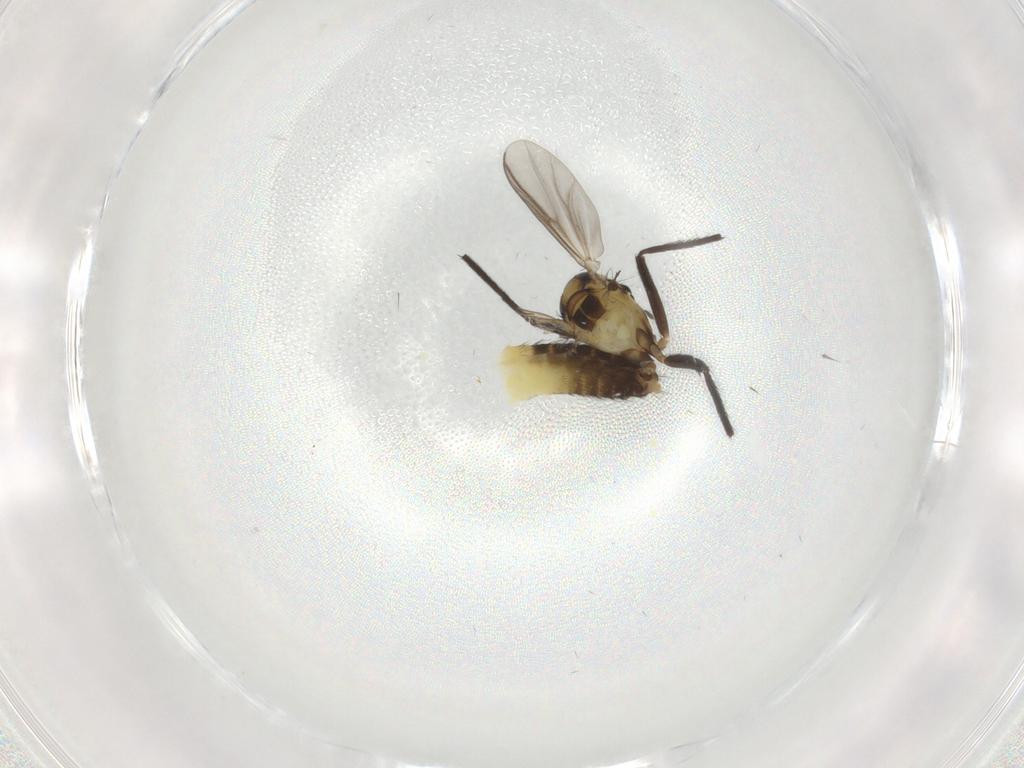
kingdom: Animalia
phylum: Arthropoda
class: Insecta
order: Diptera
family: Chironomidae
